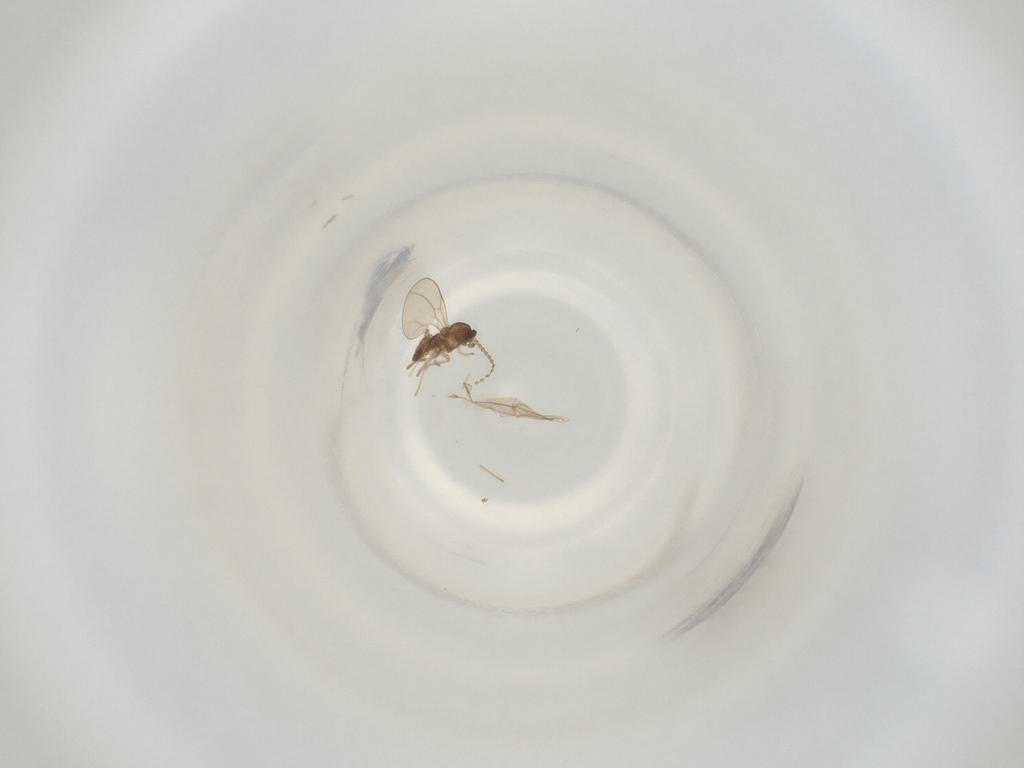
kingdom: Animalia
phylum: Arthropoda
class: Insecta
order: Diptera
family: Cecidomyiidae
